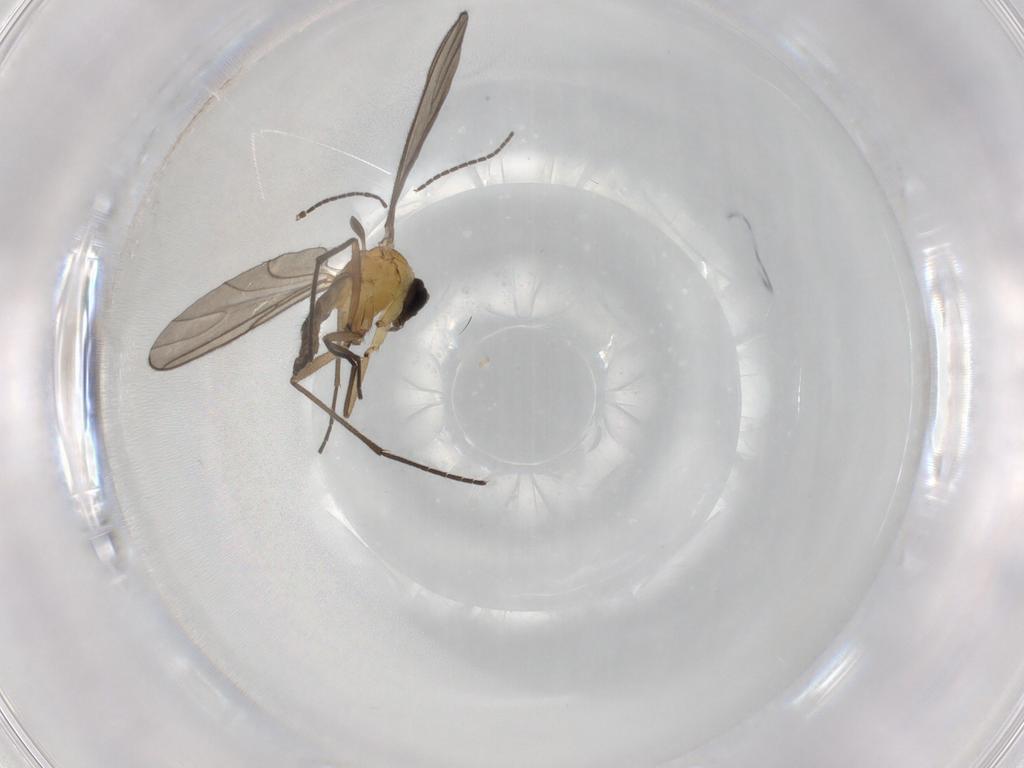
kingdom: Animalia
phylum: Arthropoda
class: Insecta
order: Diptera
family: Sciaridae
